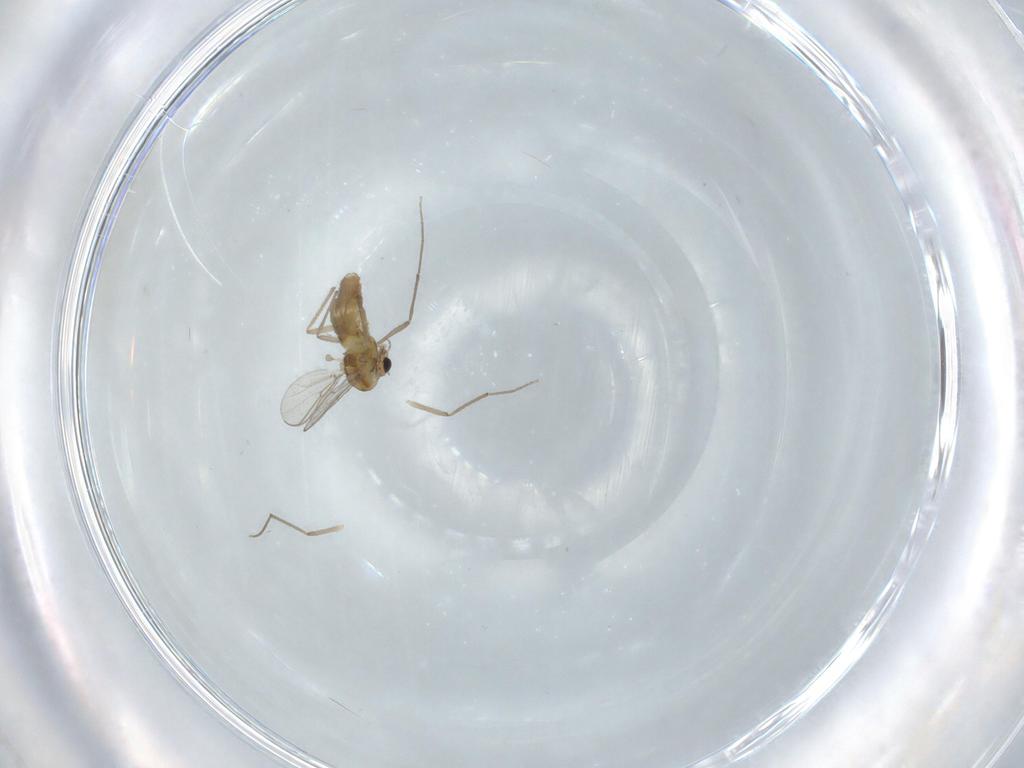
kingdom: Animalia
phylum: Arthropoda
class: Insecta
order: Diptera
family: Chironomidae
